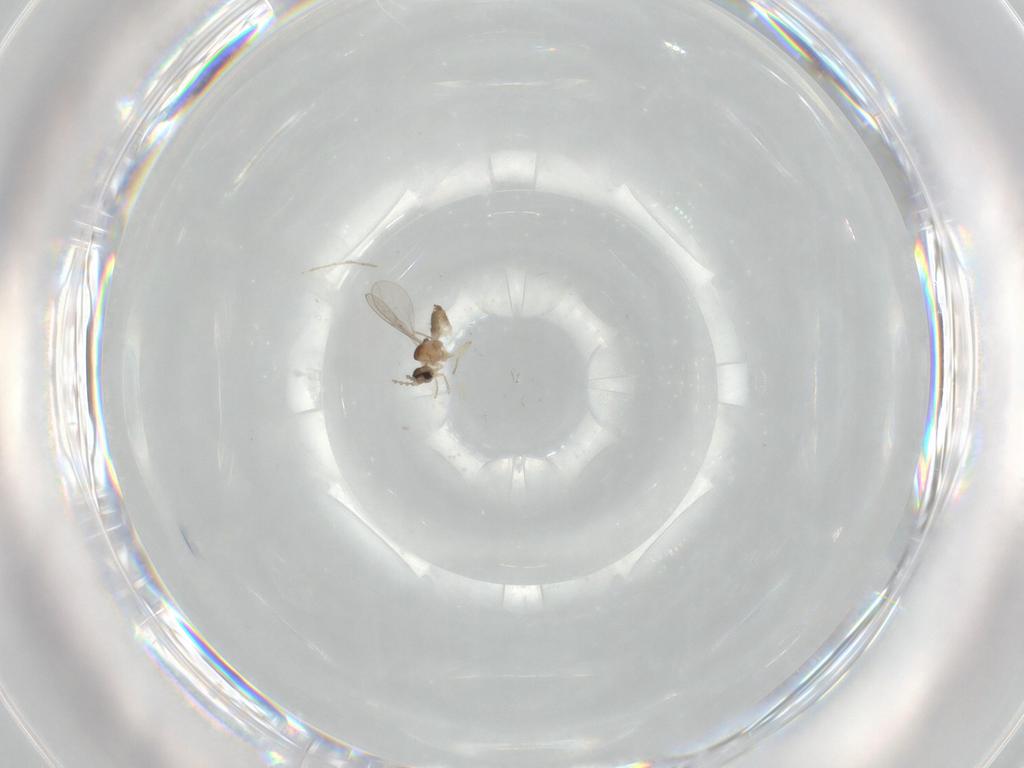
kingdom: Animalia
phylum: Arthropoda
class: Insecta
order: Diptera
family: Cecidomyiidae
